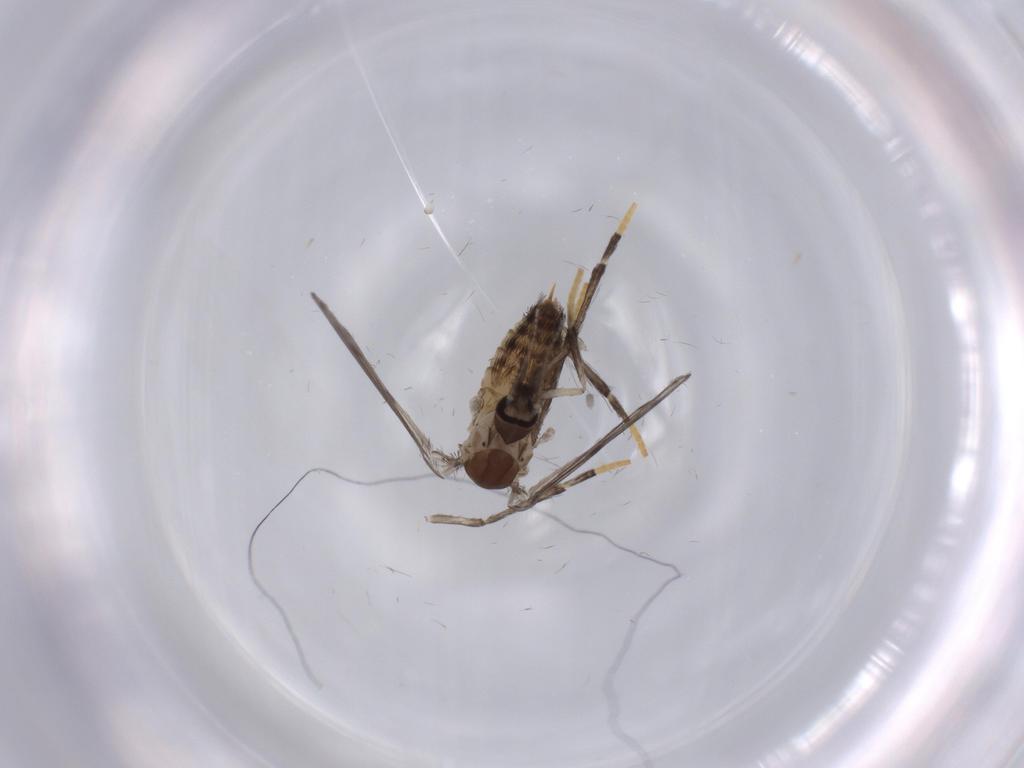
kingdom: Animalia
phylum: Arthropoda
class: Insecta
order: Diptera
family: Psychodidae
